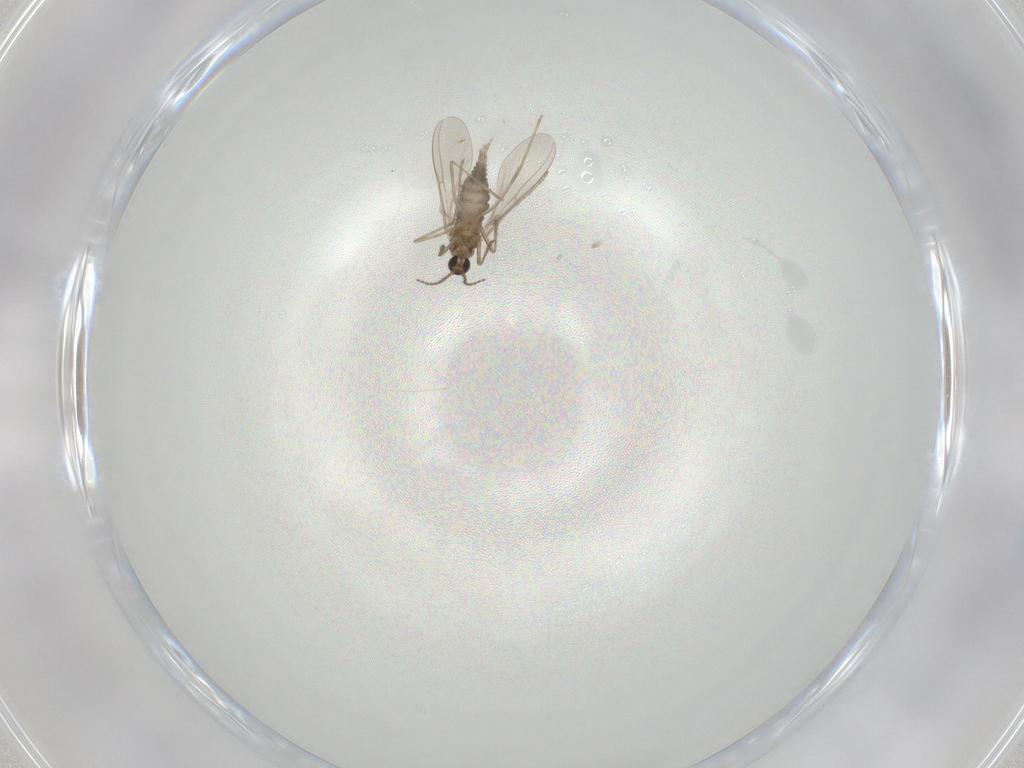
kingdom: Animalia
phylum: Arthropoda
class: Insecta
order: Diptera
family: Cecidomyiidae
